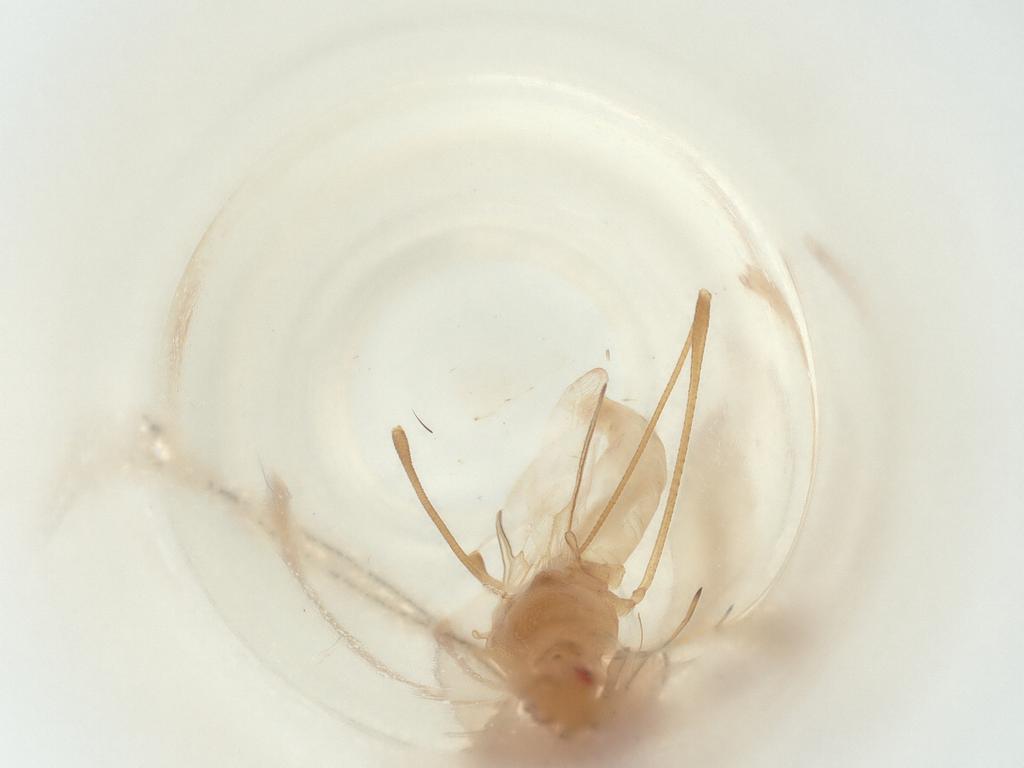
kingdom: Animalia
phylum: Arthropoda
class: Insecta
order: Hemiptera
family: Berytidae
